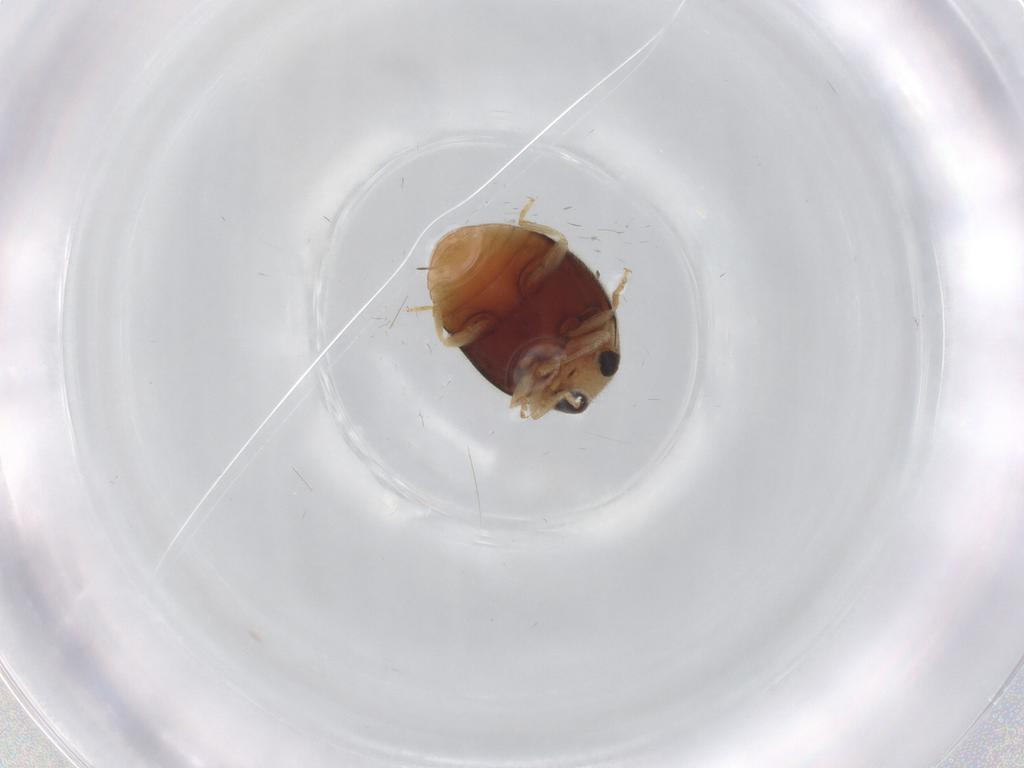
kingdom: Animalia
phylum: Arthropoda
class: Insecta
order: Coleoptera
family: Coccinellidae
